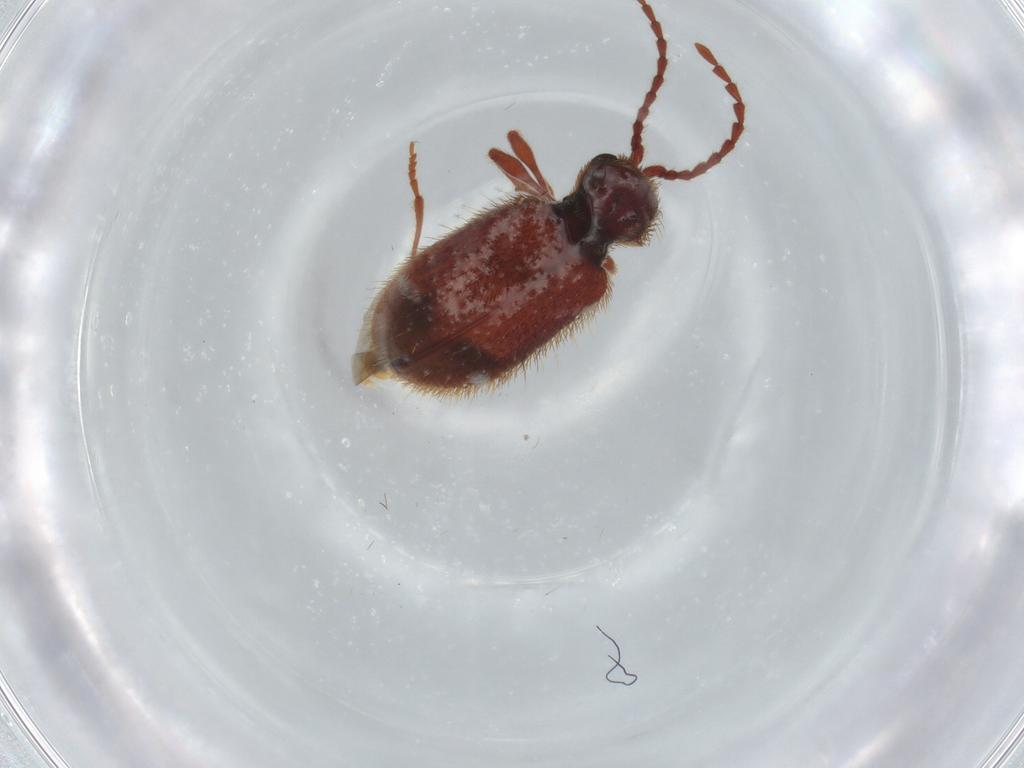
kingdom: Animalia
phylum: Arthropoda
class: Insecta
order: Coleoptera
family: Ptinidae
